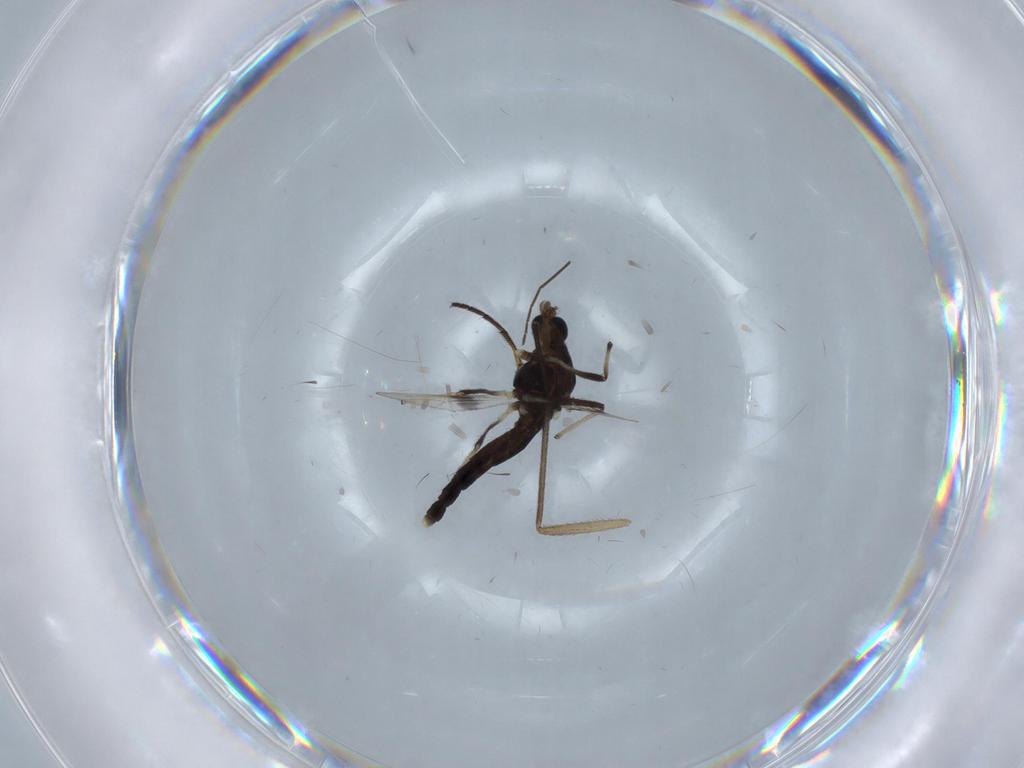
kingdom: Animalia
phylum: Arthropoda
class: Insecta
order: Diptera
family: Chironomidae
